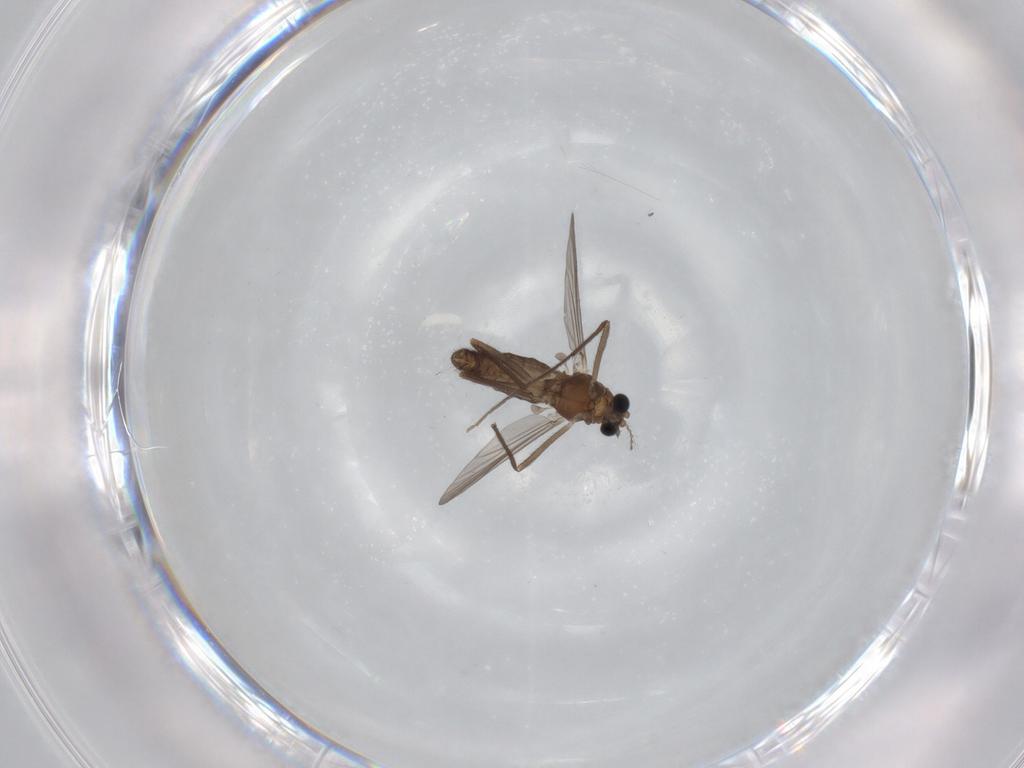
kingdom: Animalia
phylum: Arthropoda
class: Insecta
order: Diptera
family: Chironomidae
